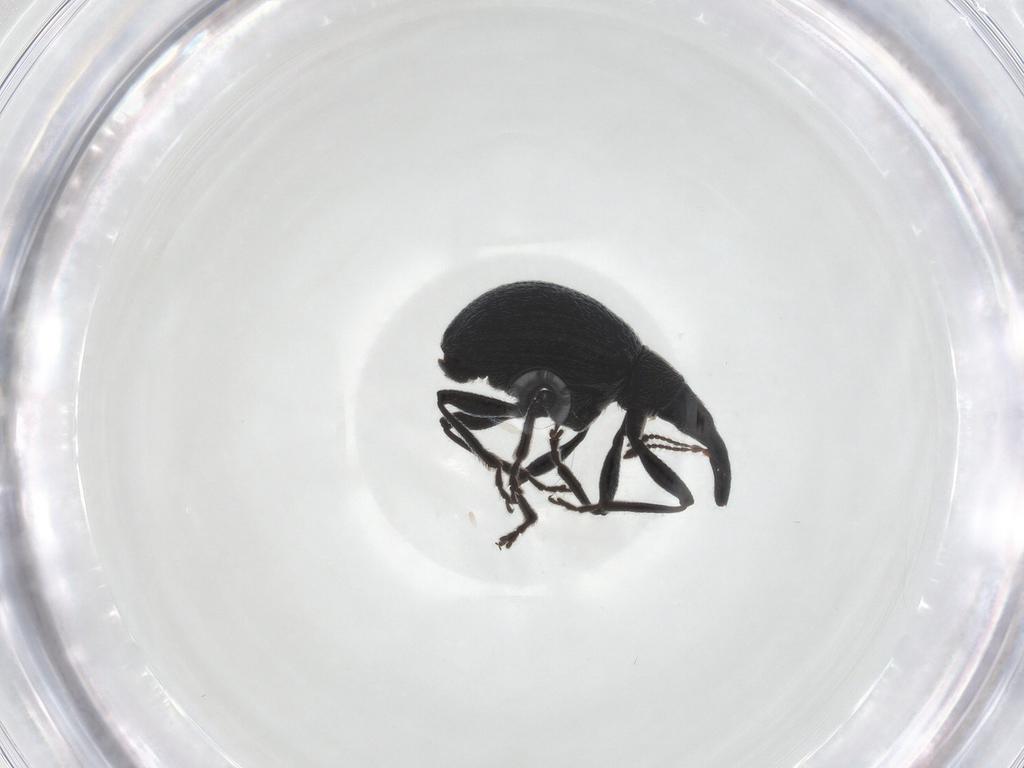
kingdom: Animalia
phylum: Arthropoda
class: Insecta
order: Coleoptera
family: Brentidae
